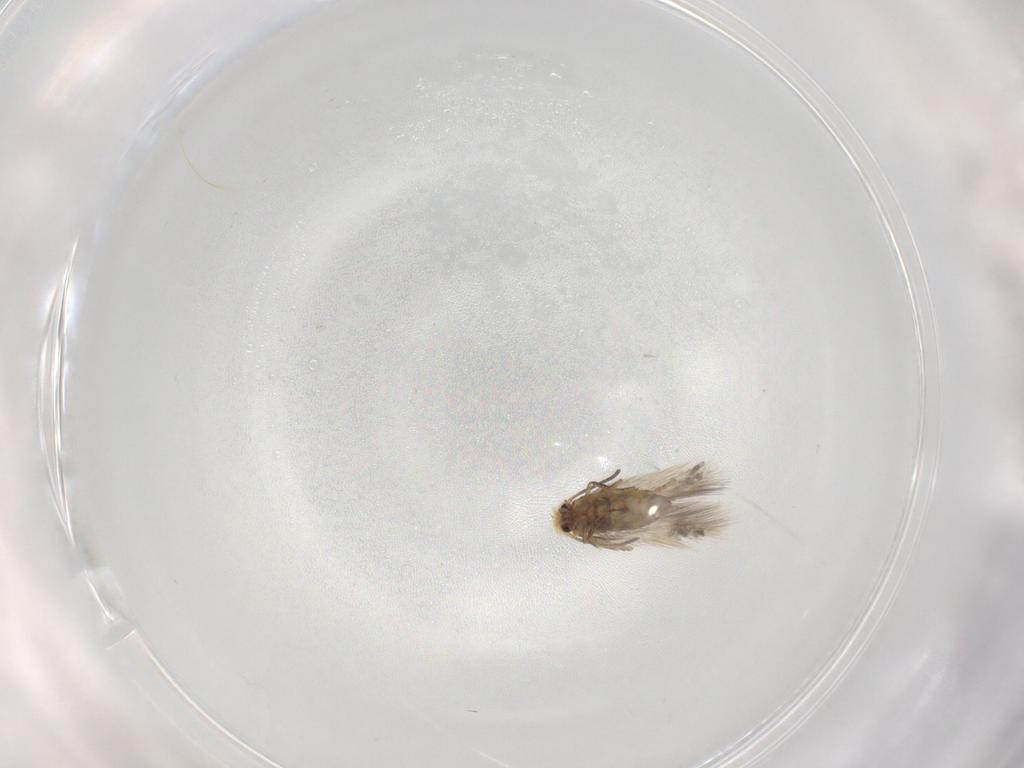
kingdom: Animalia
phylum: Arthropoda
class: Insecta
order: Lepidoptera
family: Nepticulidae
